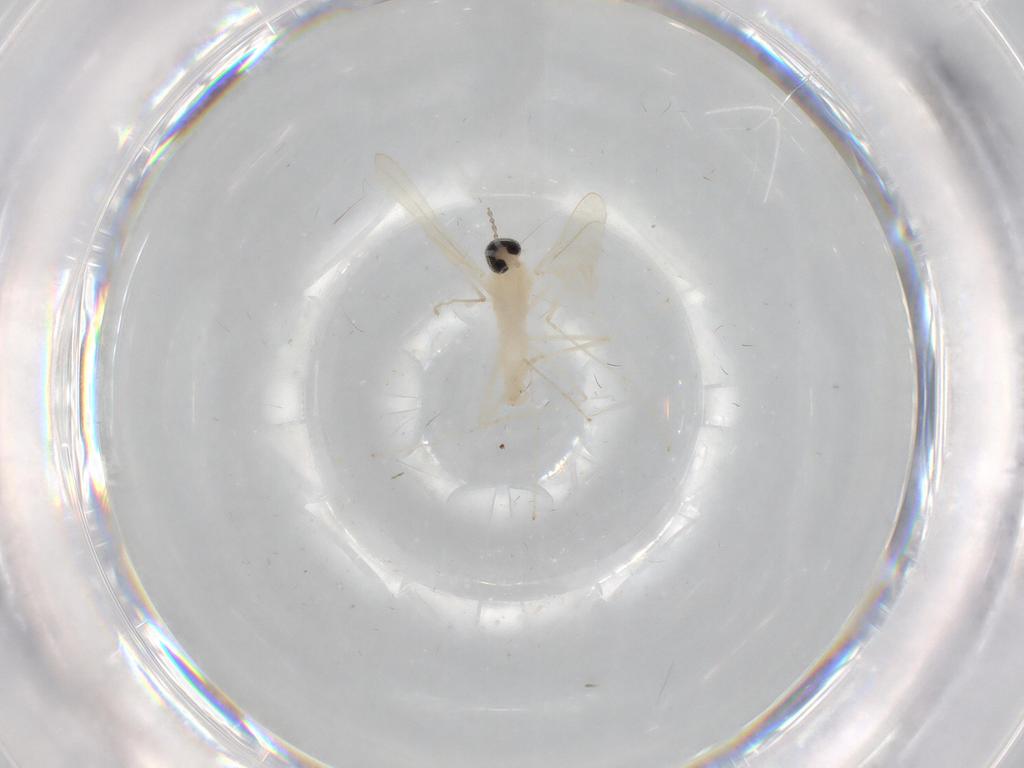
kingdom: Animalia
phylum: Arthropoda
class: Insecta
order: Diptera
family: Cecidomyiidae
